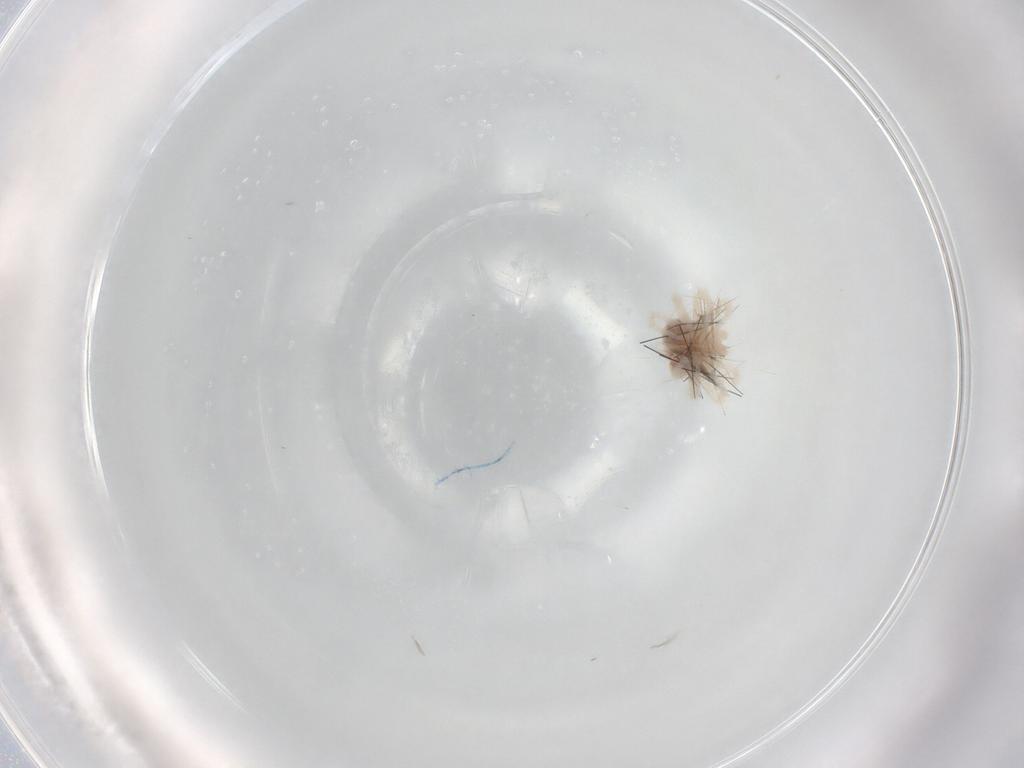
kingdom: Animalia
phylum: Arthropoda
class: Arachnida
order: Trombidiformes
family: Anystidae
